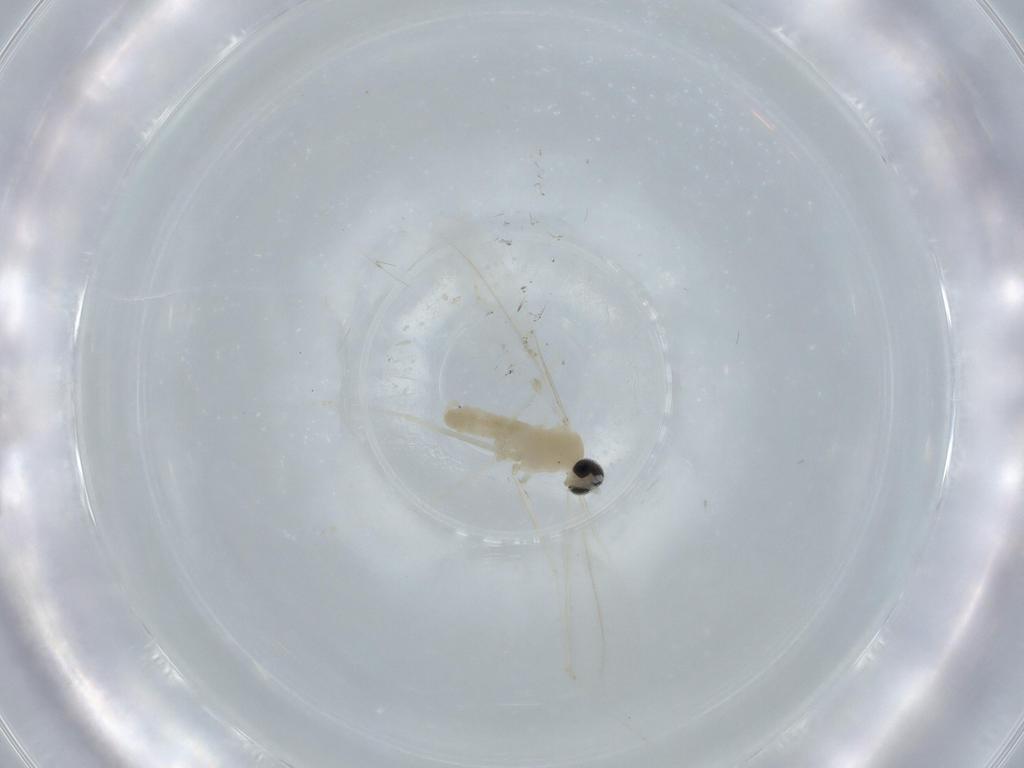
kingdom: Animalia
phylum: Arthropoda
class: Insecta
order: Diptera
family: Cecidomyiidae
